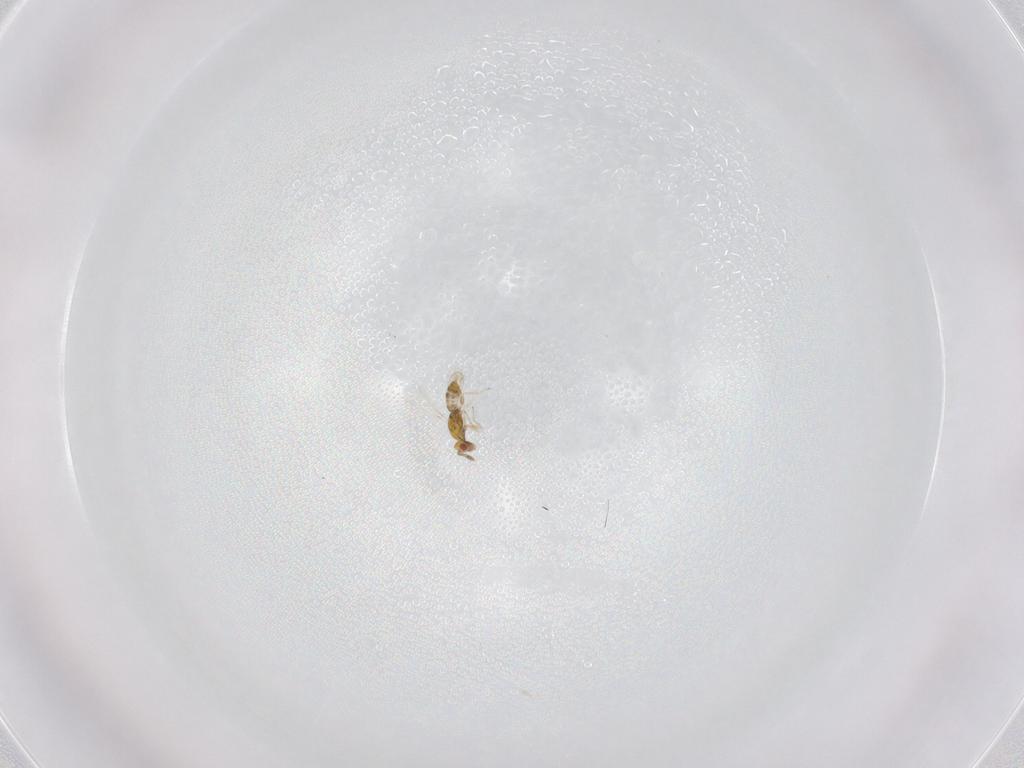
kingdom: Animalia
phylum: Arthropoda
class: Insecta
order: Hymenoptera
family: Eulophidae
